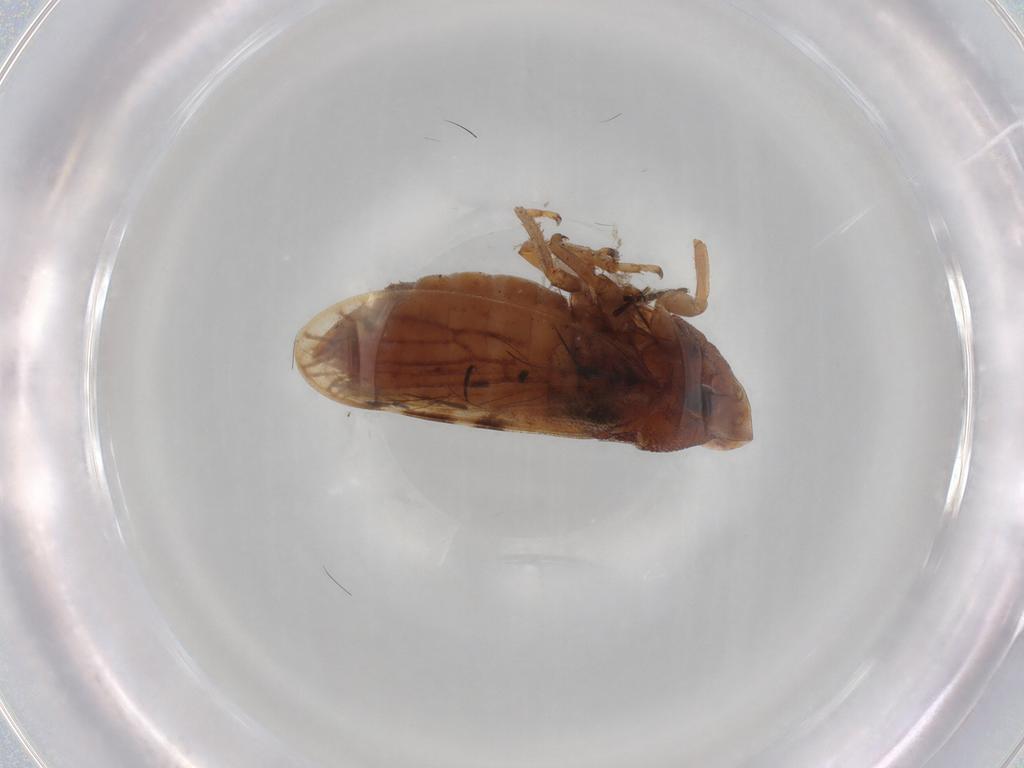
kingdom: Animalia
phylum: Arthropoda
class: Insecta
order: Hemiptera
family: Cicadellidae
